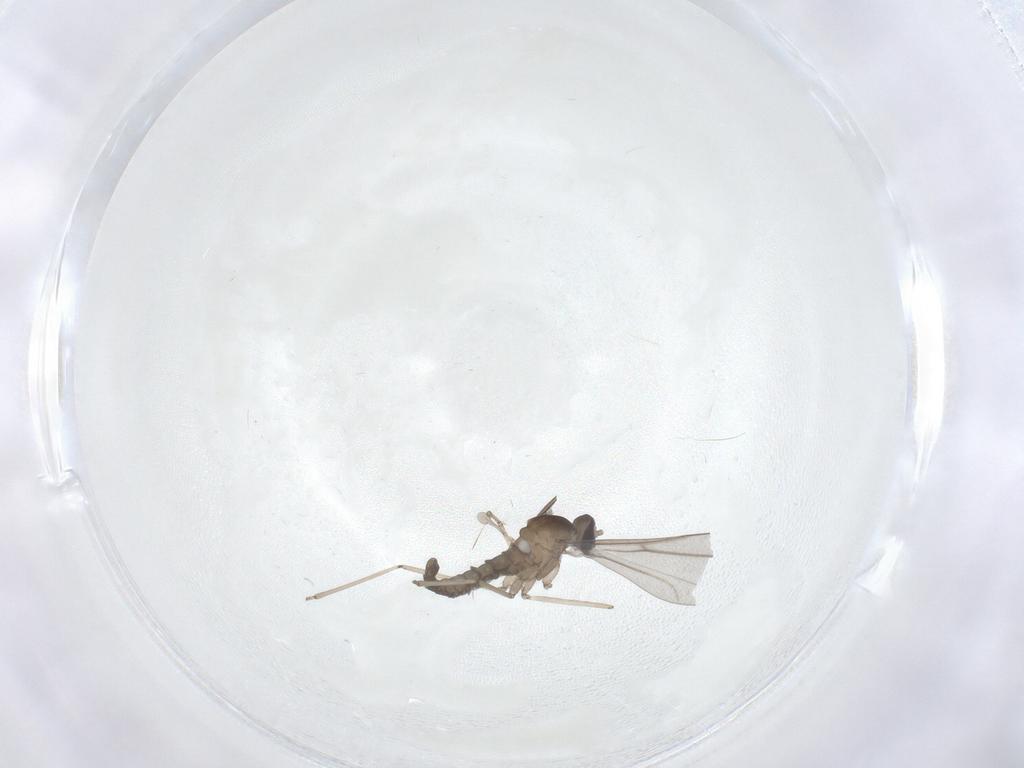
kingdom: Animalia
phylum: Arthropoda
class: Insecta
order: Diptera
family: Cecidomyiidae
